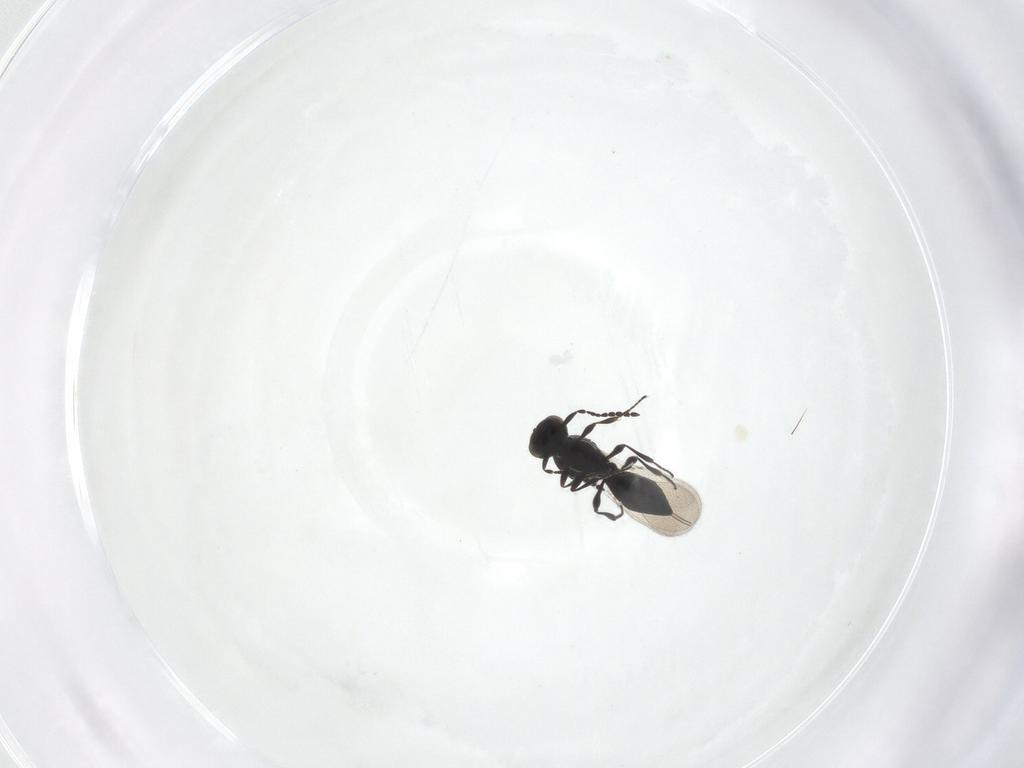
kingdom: Animalia
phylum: Arthropoda
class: Insecta
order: Hymenoptera
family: Platygastridae
